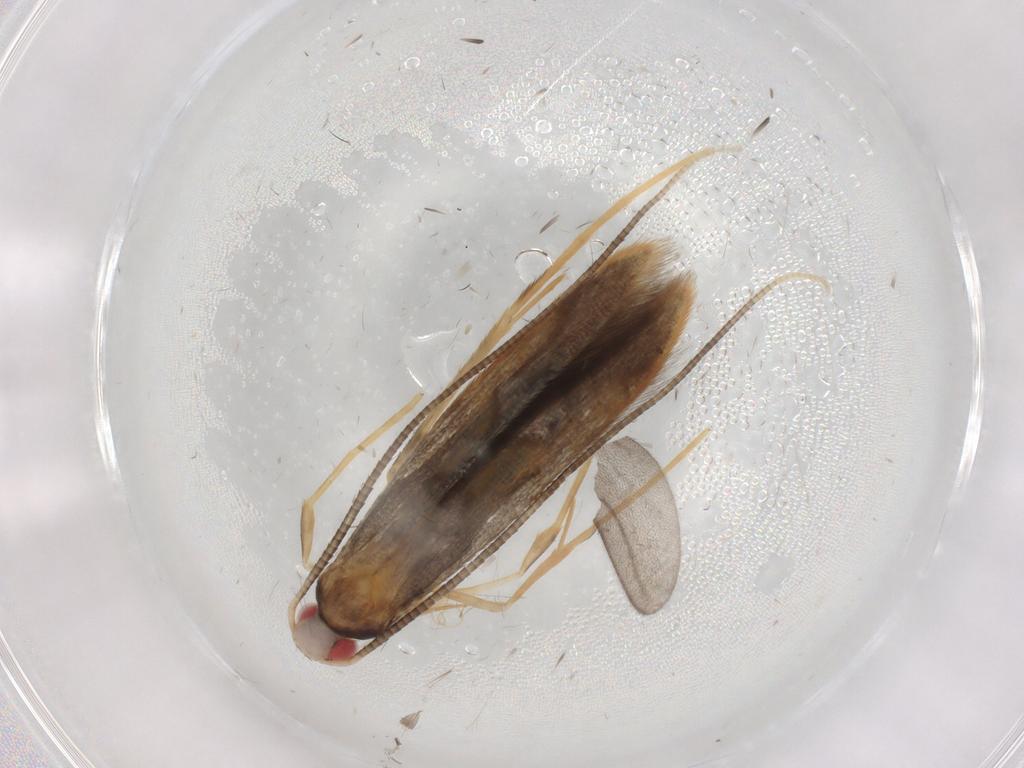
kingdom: Animalia
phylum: Arthropoda
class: Insecta
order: Lepidoptera
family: Gracillariidae
